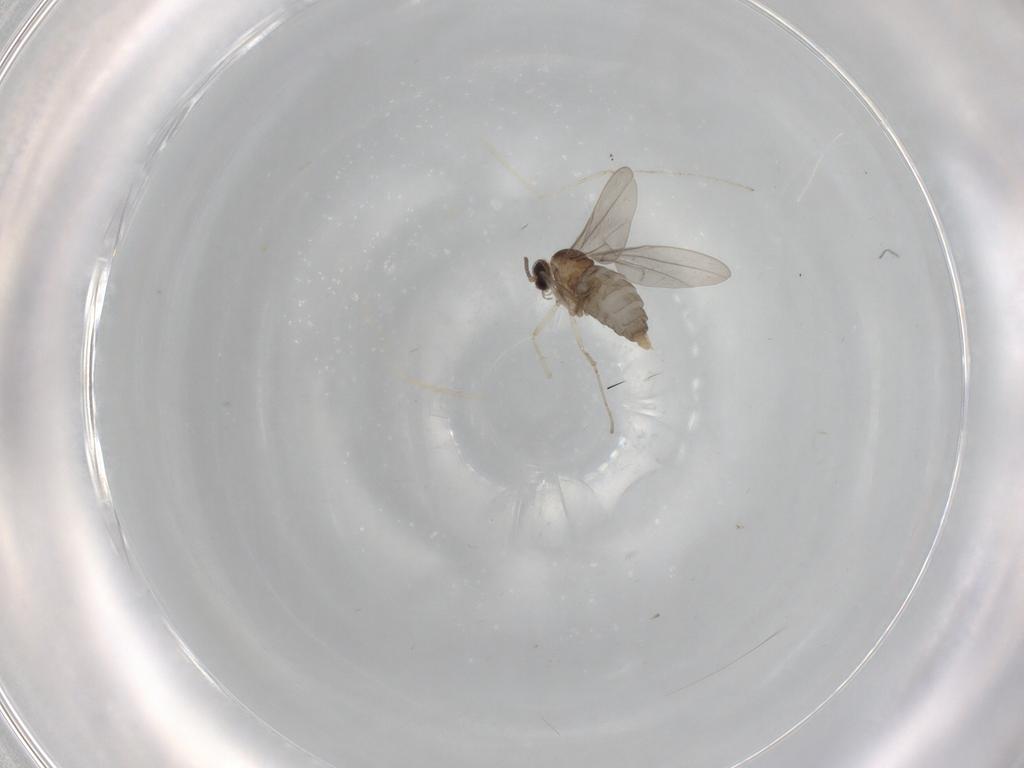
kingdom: Animalia
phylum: Arthropoda
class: Insecta
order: Diptera
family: Cecidomyiidae
